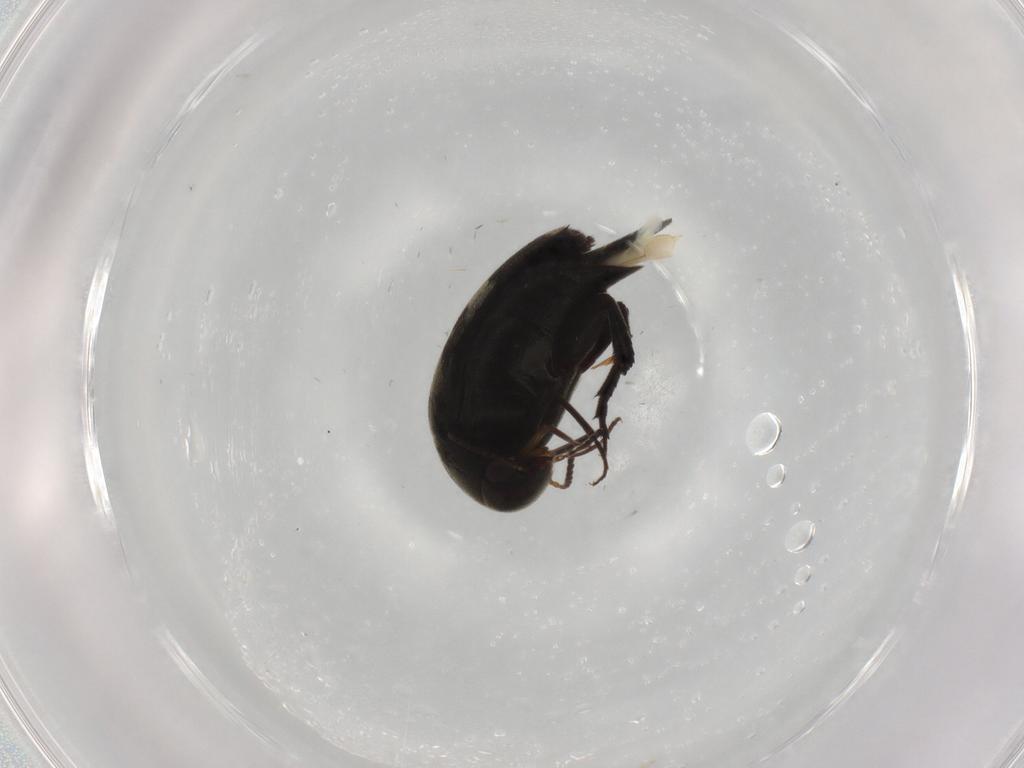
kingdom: Animalia
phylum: Arthropoda
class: Insecta
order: Coleoptera
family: Mordellidae
